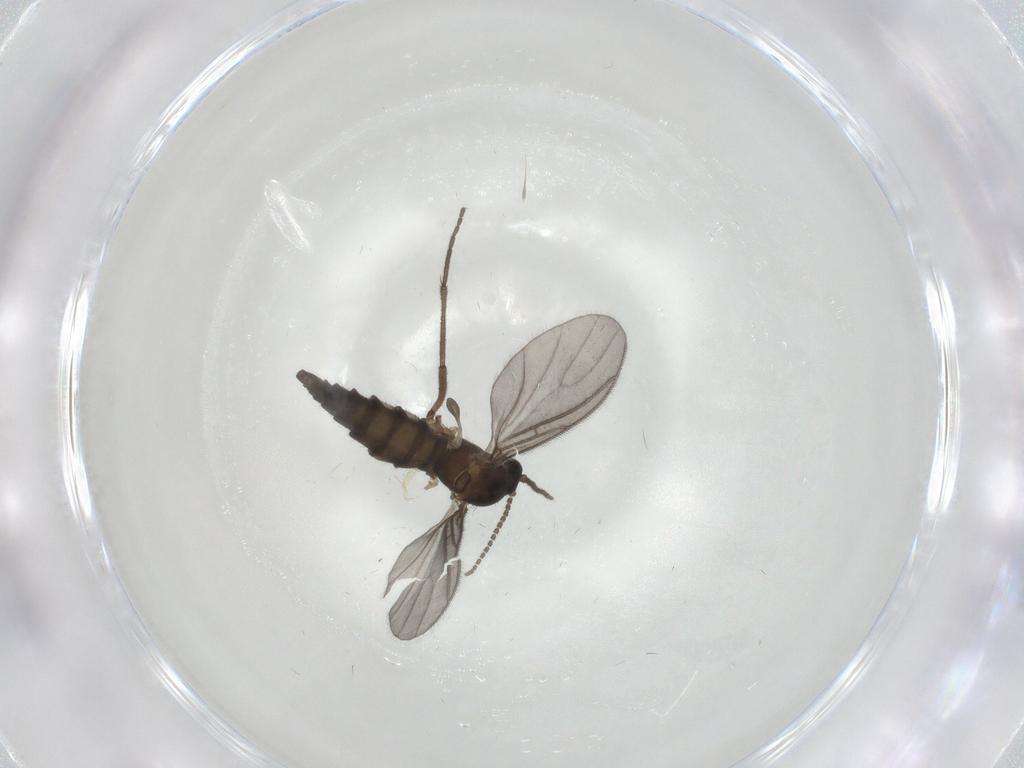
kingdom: Animalia
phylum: Arthropoda
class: Insecta
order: Diptera
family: Sciaridae
